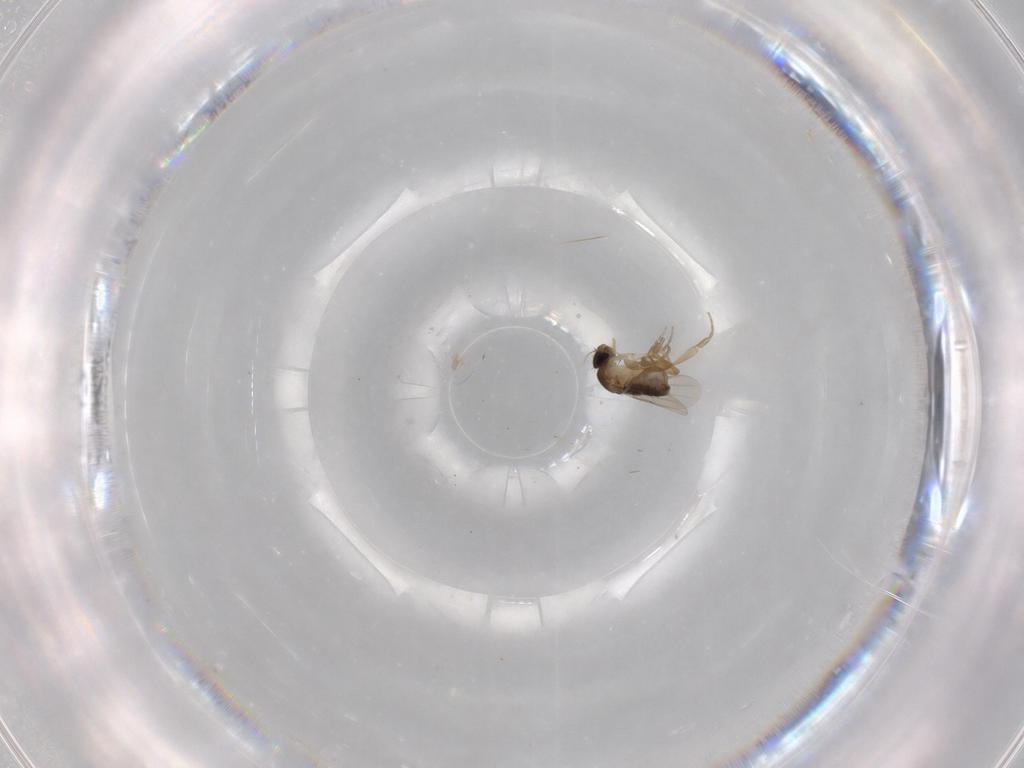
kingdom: Animalia
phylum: Arthropoda
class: Insecta
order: Diptera
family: Phoridae
